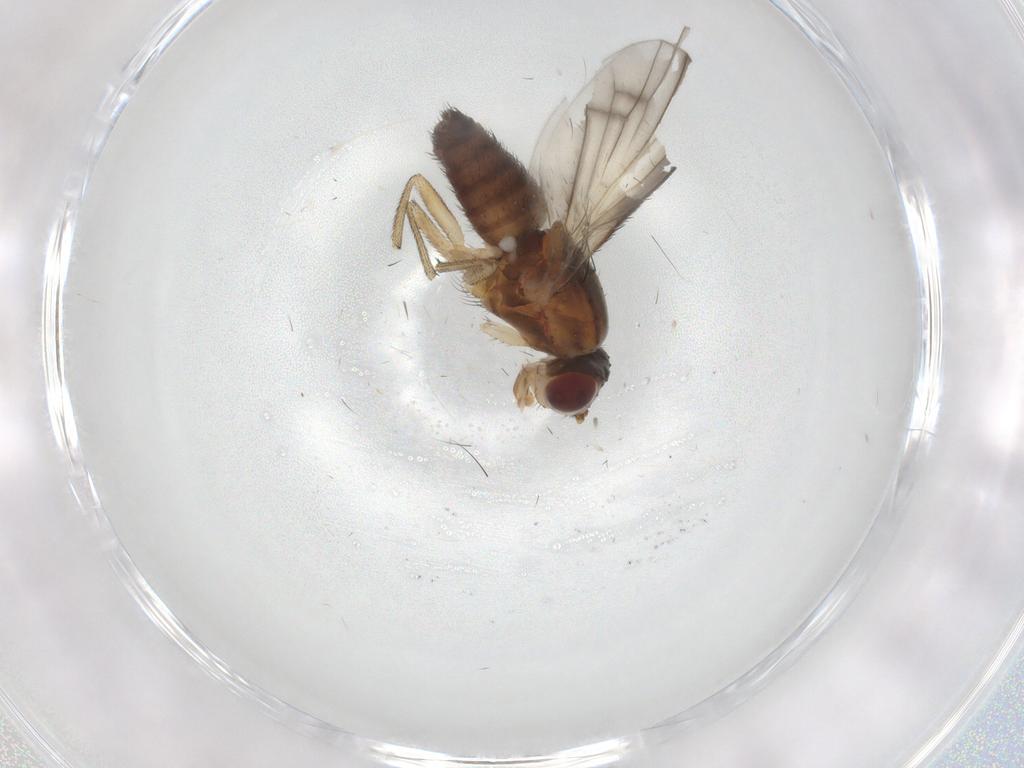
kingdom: Animalia
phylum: Arthropoda
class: Insecta
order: Diptera
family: Heleomyzidae
